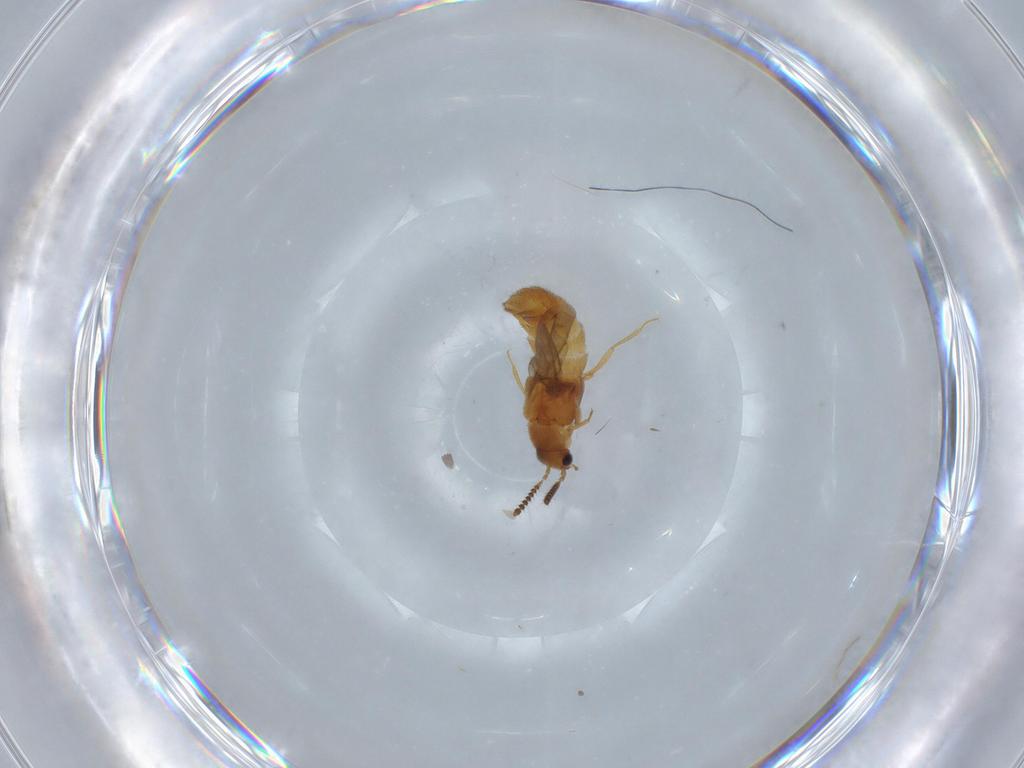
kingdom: Animalia
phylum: Arthropoda
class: Insecta
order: Coleoptera
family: Staphylinidae
